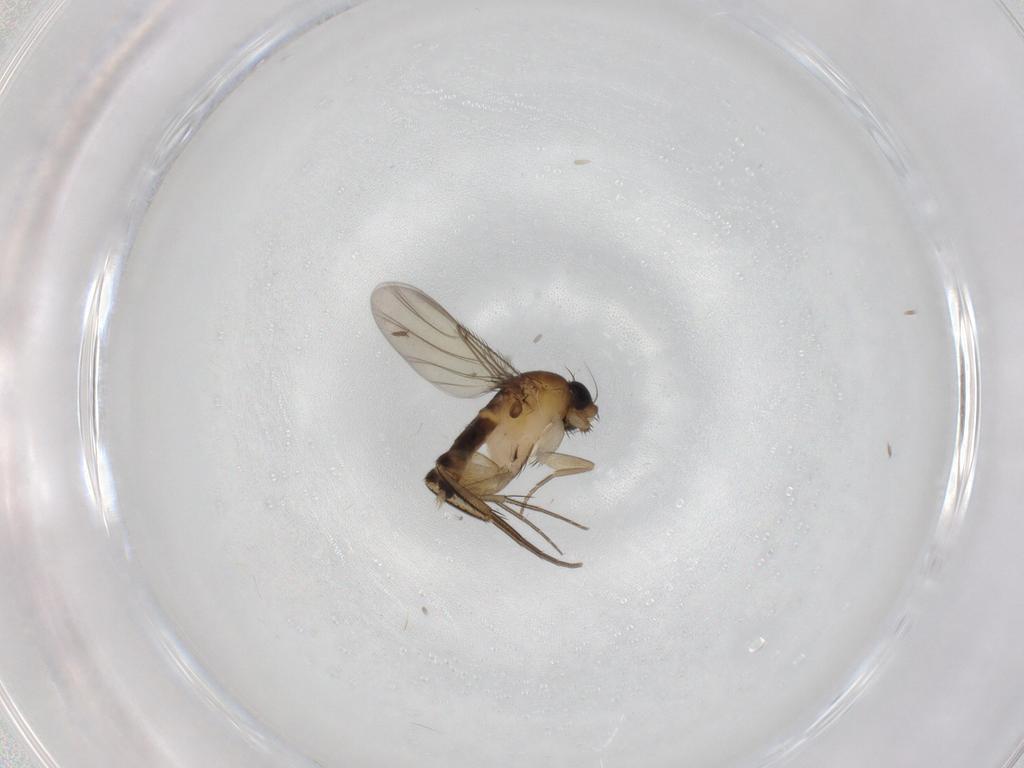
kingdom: Animalia
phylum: Arthropoda
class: Insecta
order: Diptera
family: Phoridae
